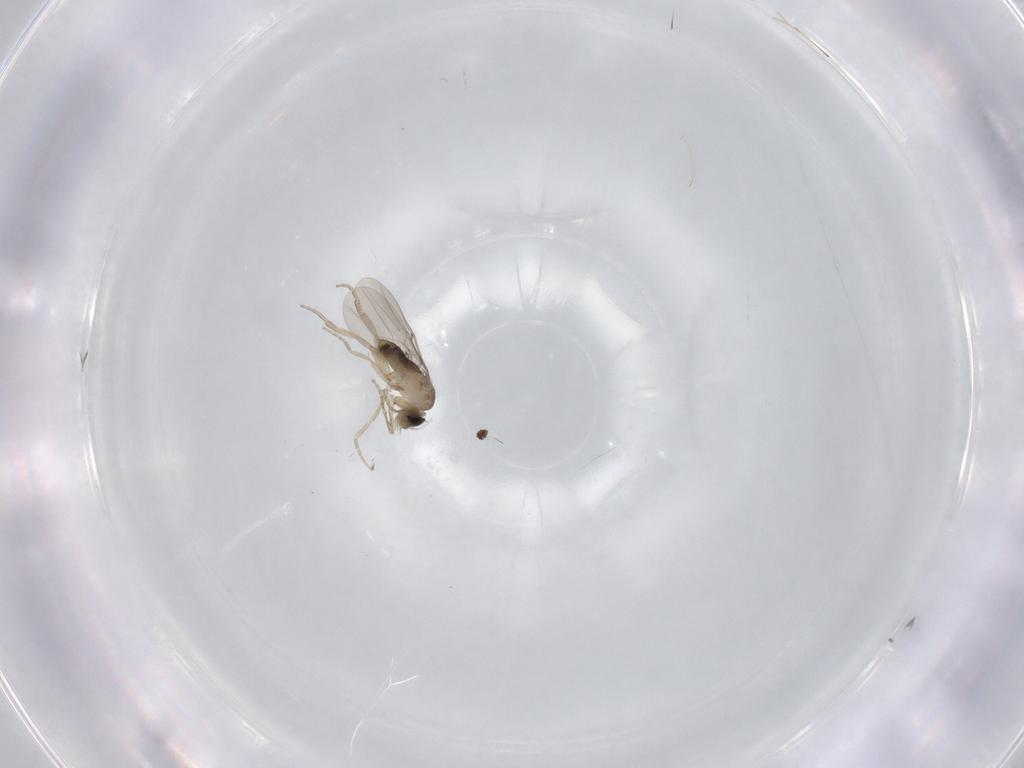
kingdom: Animalia
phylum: Arthropoda
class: Insecta
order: Diptera
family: Phoridae
